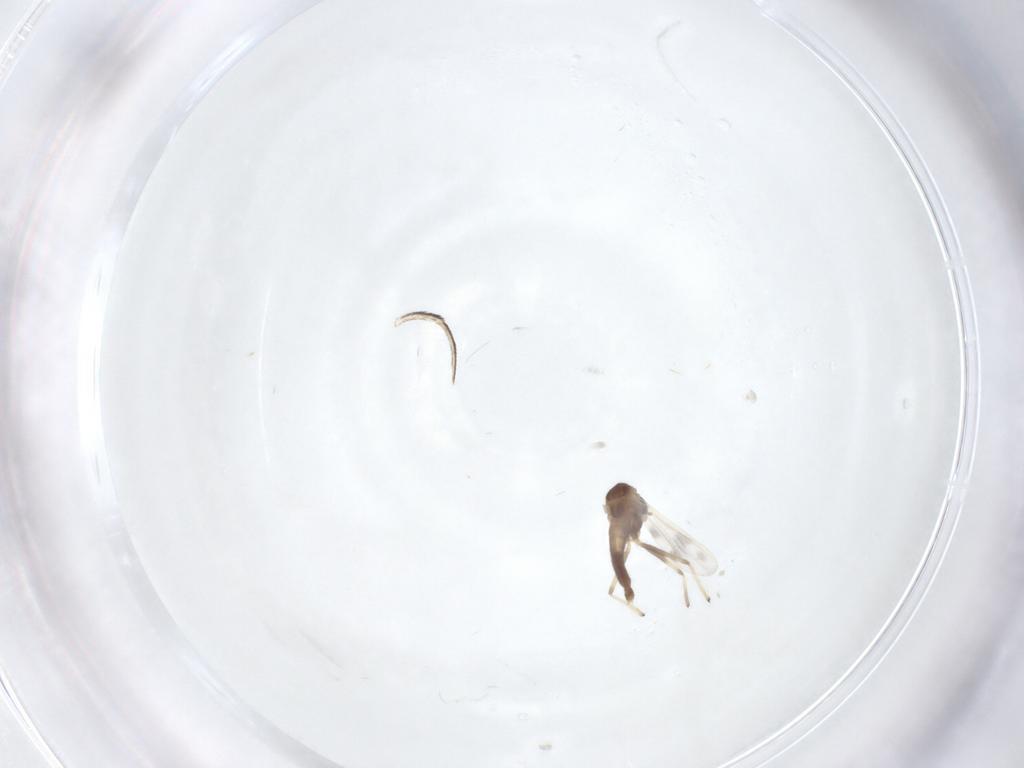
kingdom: Animalia
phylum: Arthropoda
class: Insecta
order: Diptera
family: Chironomidae
